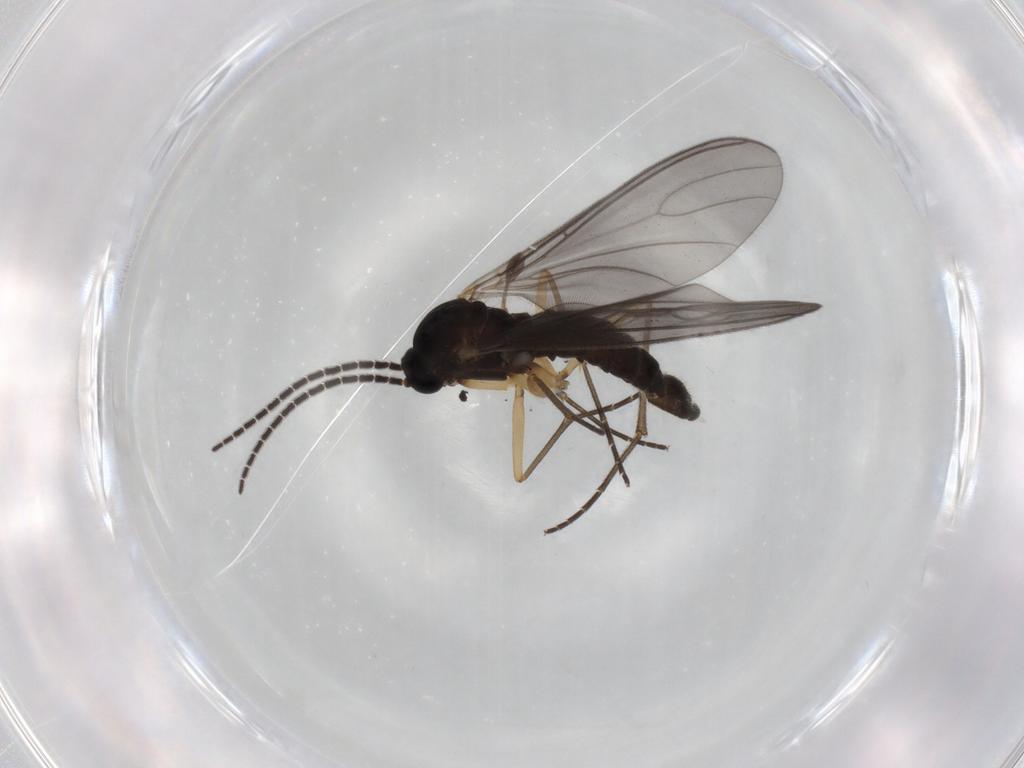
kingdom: Animalia
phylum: Arthropoda
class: Insecta
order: Diptera
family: Sciaridae
